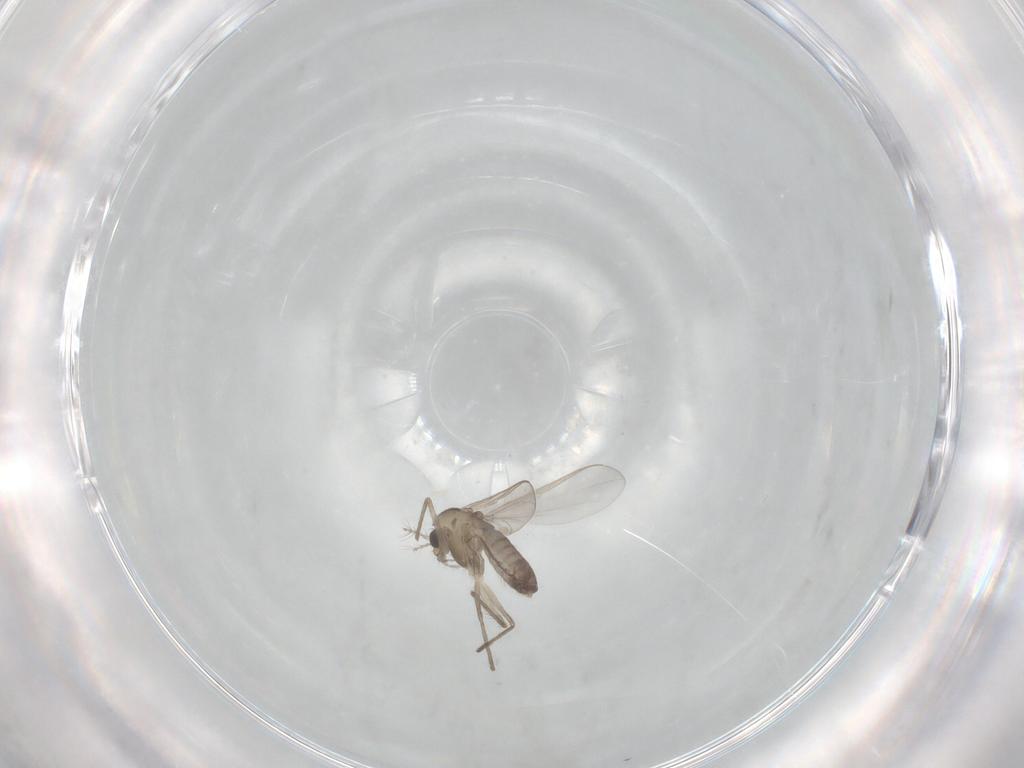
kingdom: Animalia
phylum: Arthropoda
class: Insecta
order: Diptera
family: Chironomidae
